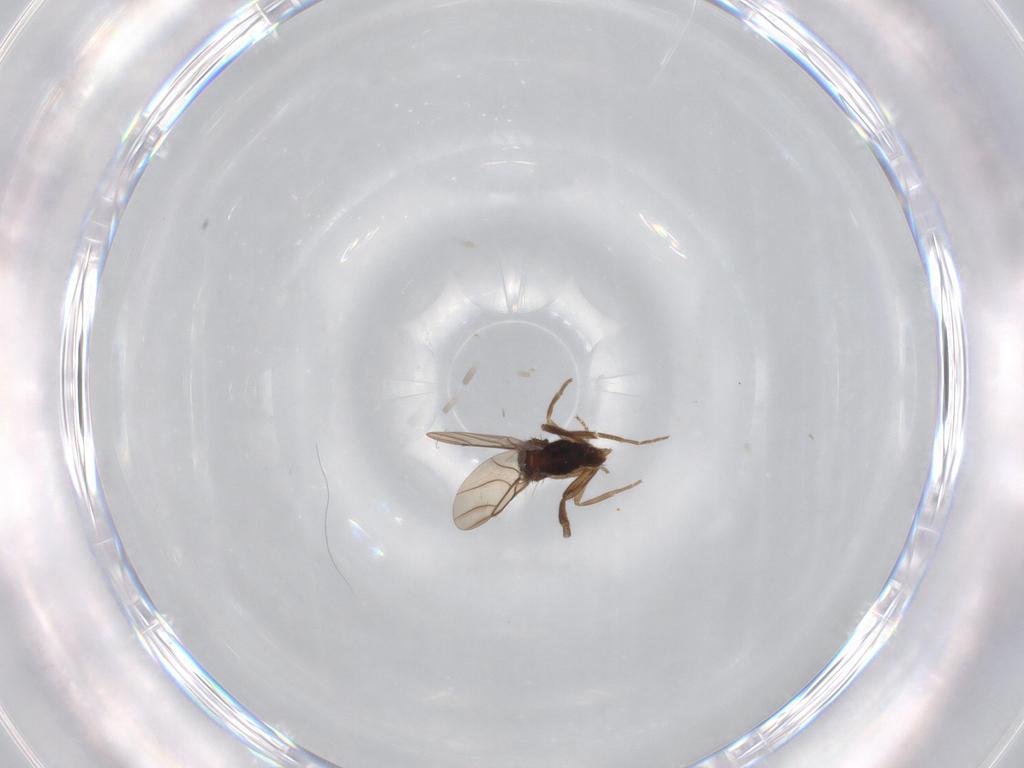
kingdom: Animalia
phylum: Arthropoda
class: Insecta
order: Diptera
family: Phoridae
